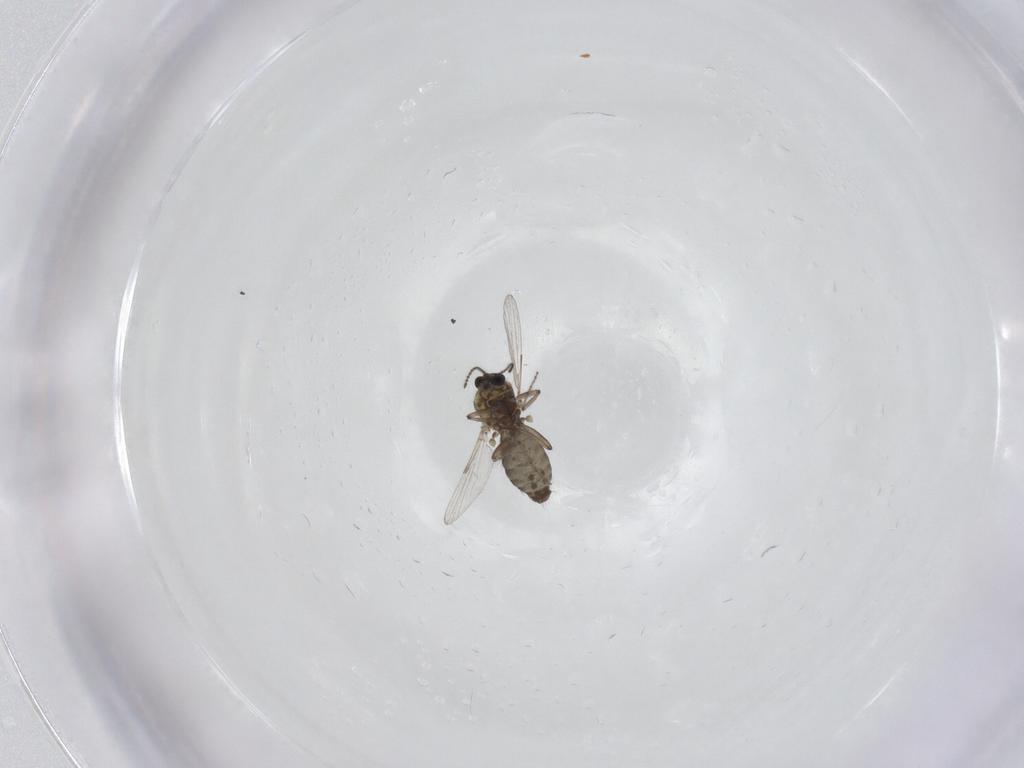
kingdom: Animalia
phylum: Arthropoda
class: Insecta
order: Diptera
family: Ceratopogonidae
